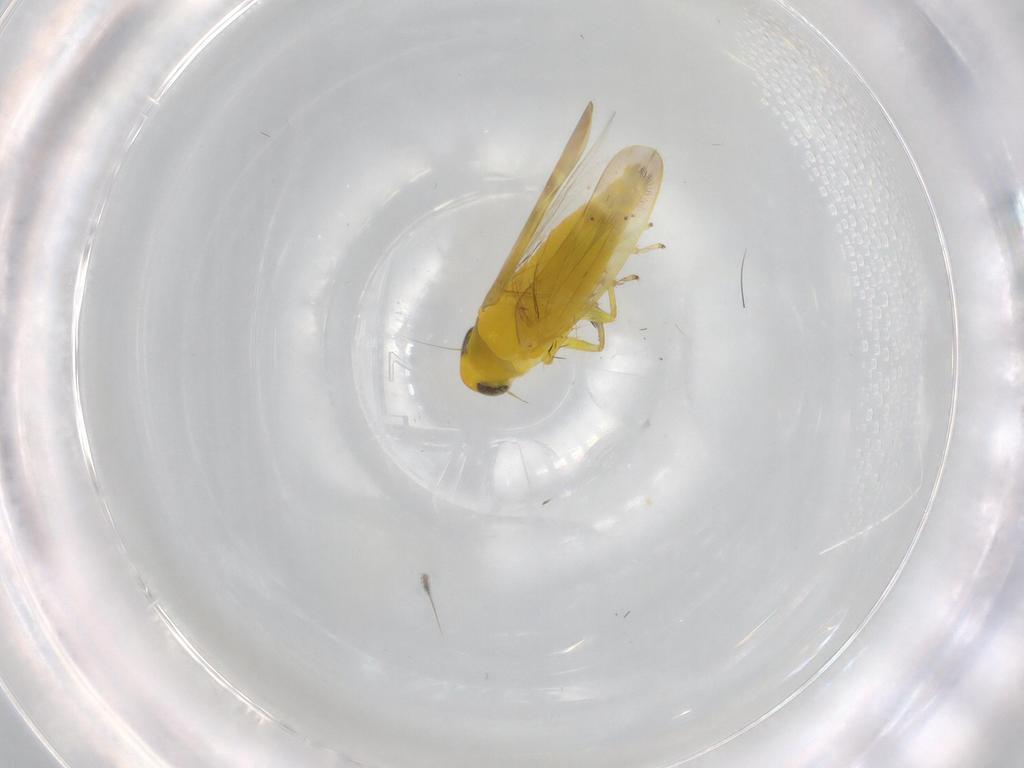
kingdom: Animalia
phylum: Arthropoda
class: Insecta
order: Hemiptera
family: Cicadellidae
